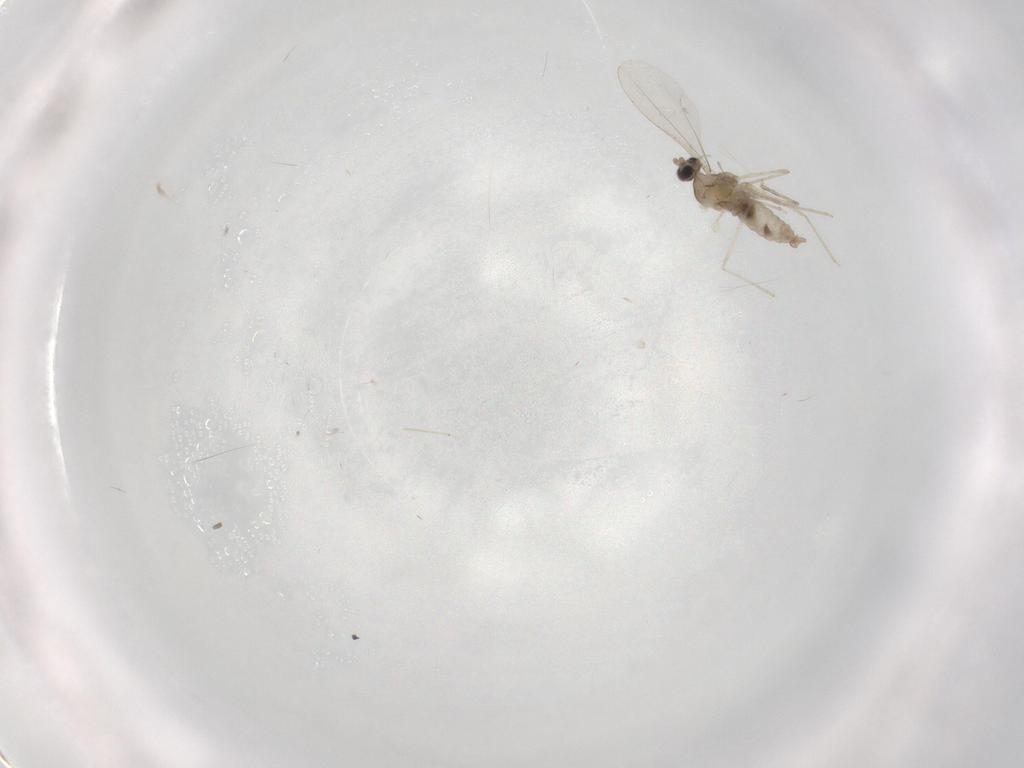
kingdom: Animalia
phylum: Arthropoda
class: Insecta
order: Diptera
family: Cecidomyiidae
